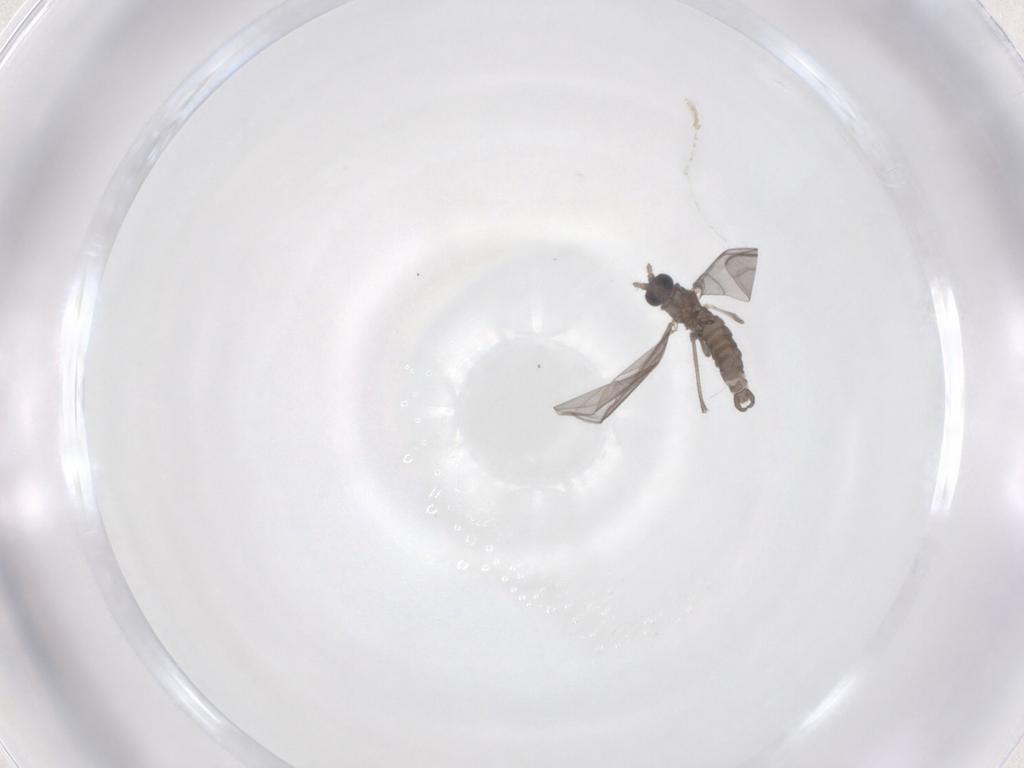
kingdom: Animalia
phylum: Arthropoda
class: Insecta
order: Diptera
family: Sciaridae
